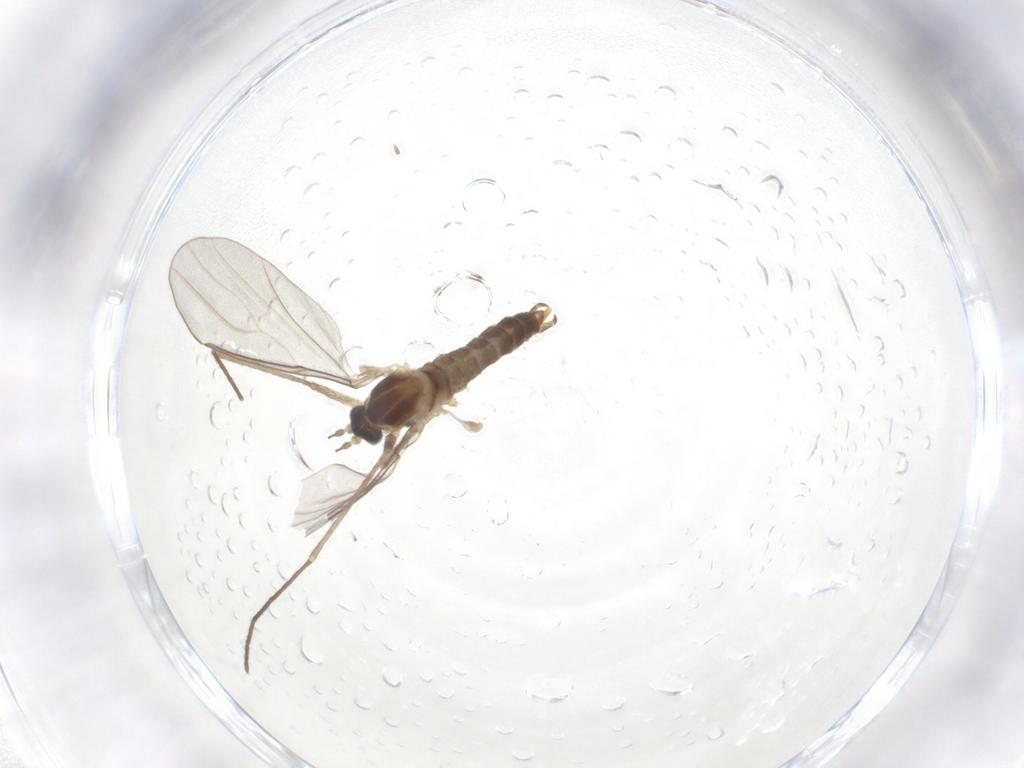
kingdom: Animalia
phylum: Arthropoda
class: Insecta
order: Diptera
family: Cecidomyiidae
